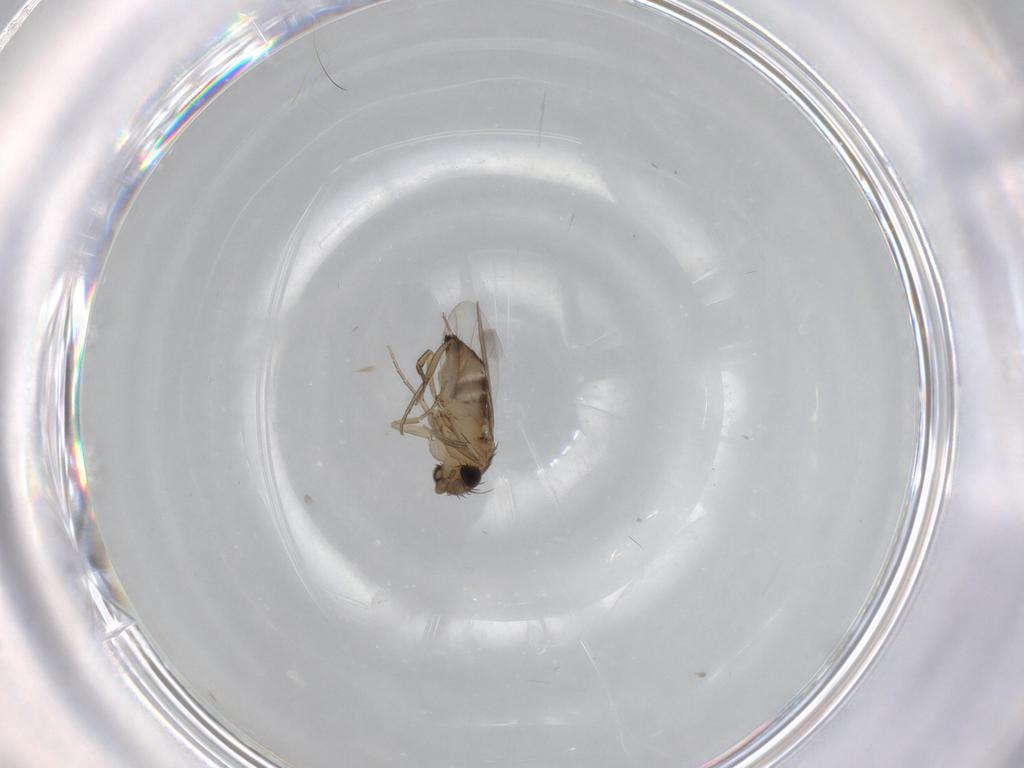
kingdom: Animalia
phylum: Arthropoda
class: Insecta
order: Diptera
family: Phoridae
